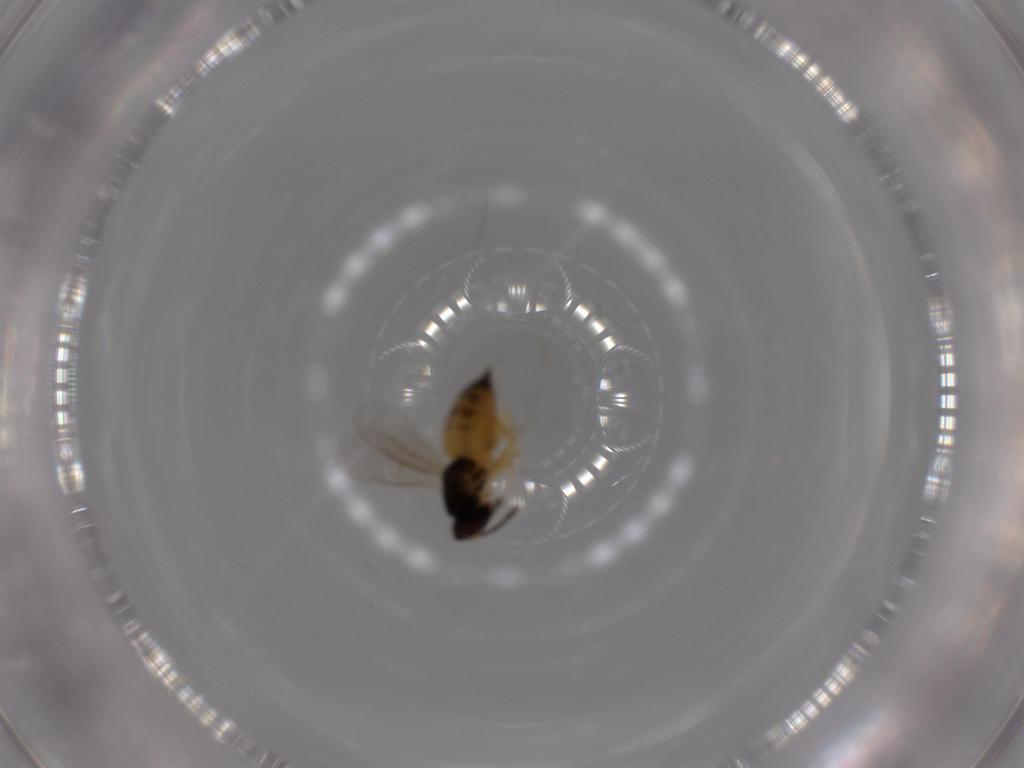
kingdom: Animalia
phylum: Arthropoda
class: Insecta
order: Hymenoptera
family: Eulophidae
